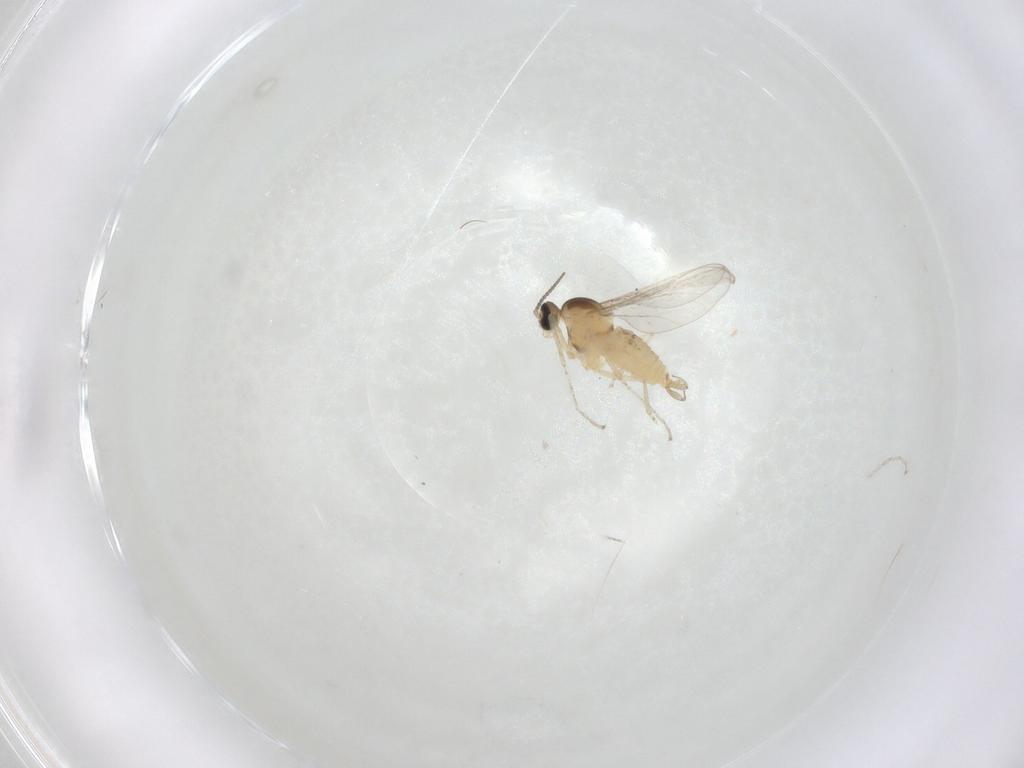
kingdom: Animalia
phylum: Arthropoda
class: Insecta
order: Diptera
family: Cecidomyiidae
